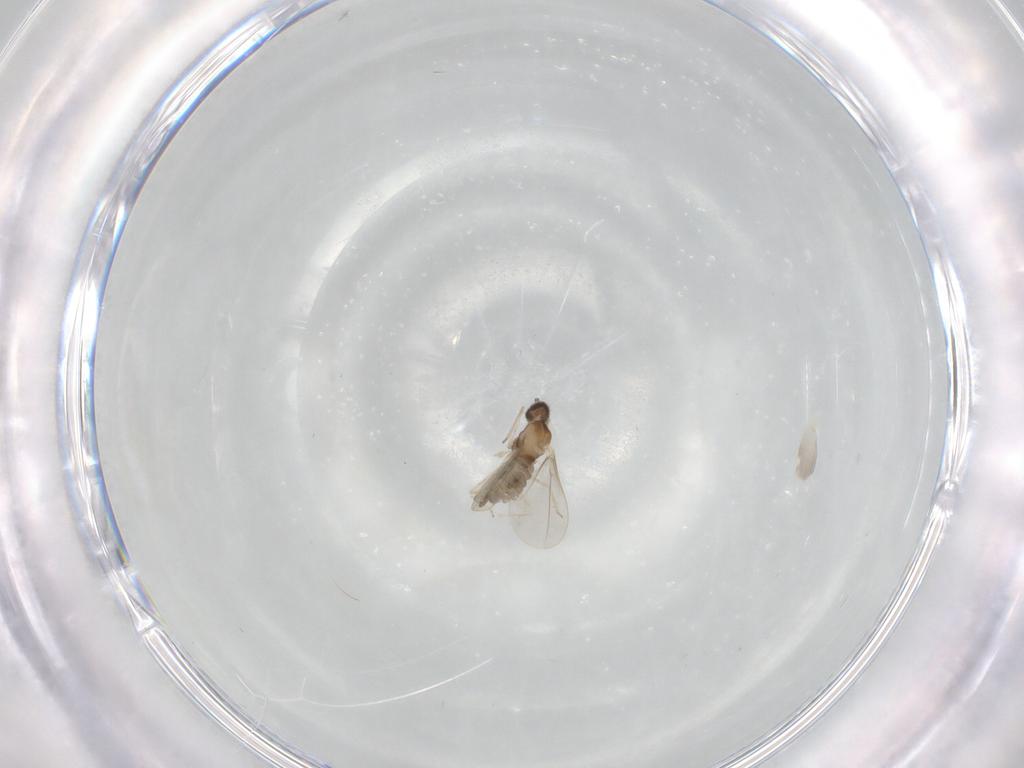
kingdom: Animalia
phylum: Arthropoda
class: Insecta
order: Diptera
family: Cecidomyiidae
